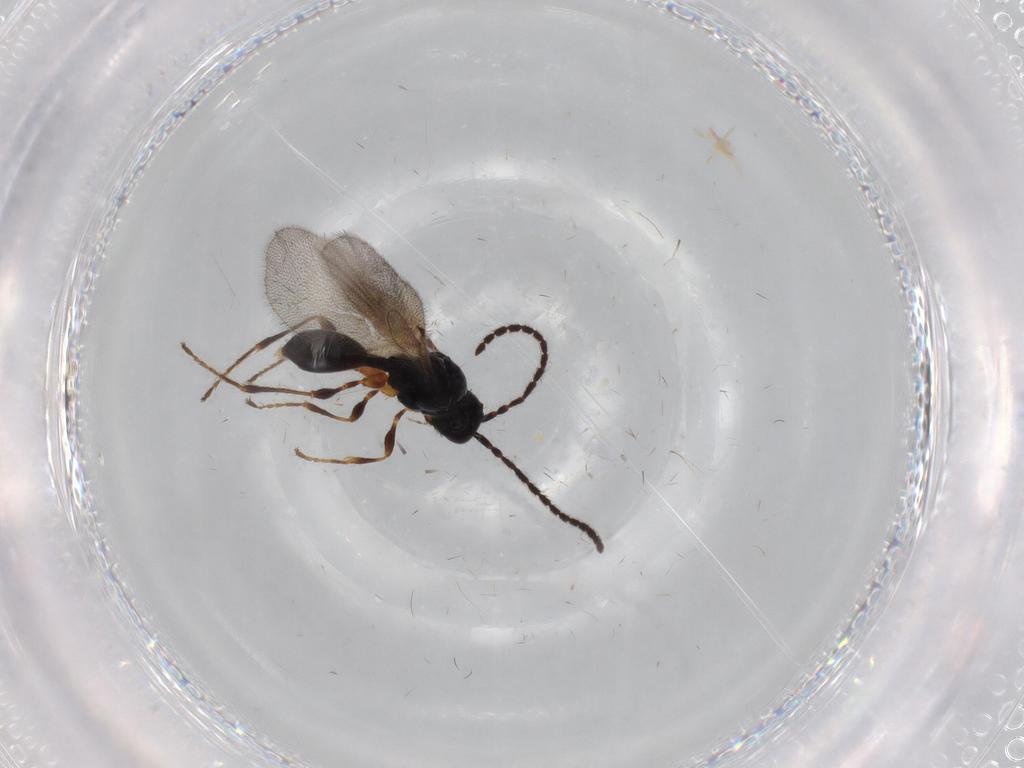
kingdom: Animalia
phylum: Arthropoda
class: Insecta
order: Hymenoptera
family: Diapriidae
